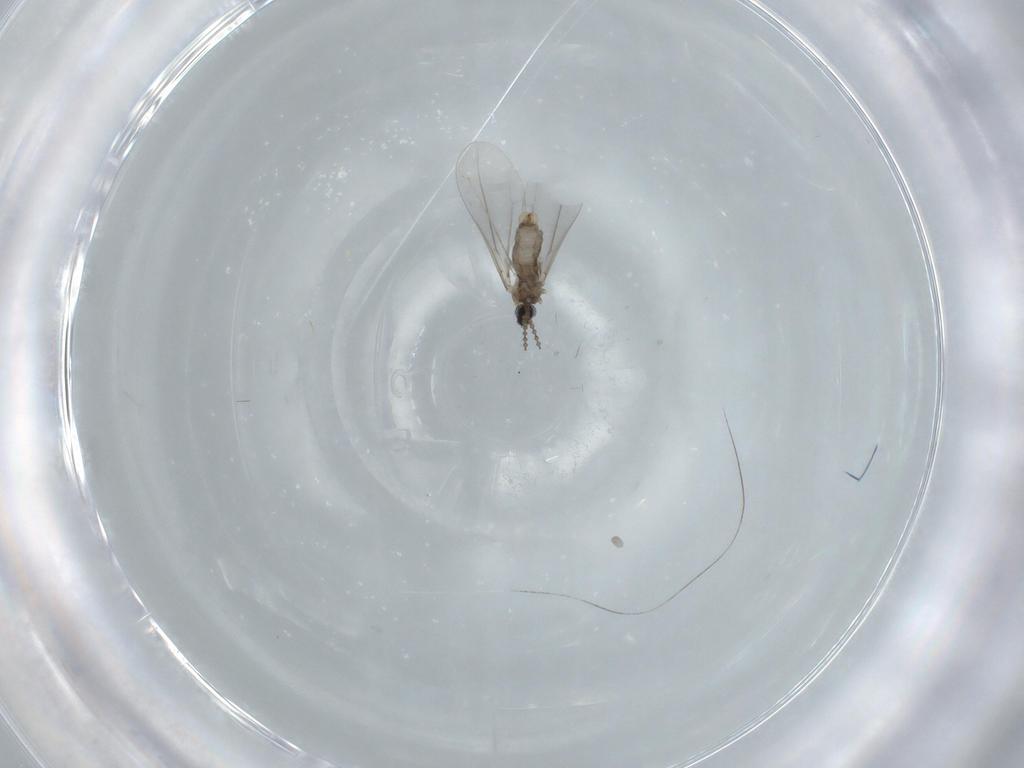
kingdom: Animalia
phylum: Arthropoda
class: Insecta
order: Diptera
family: Cecidomyiidae
